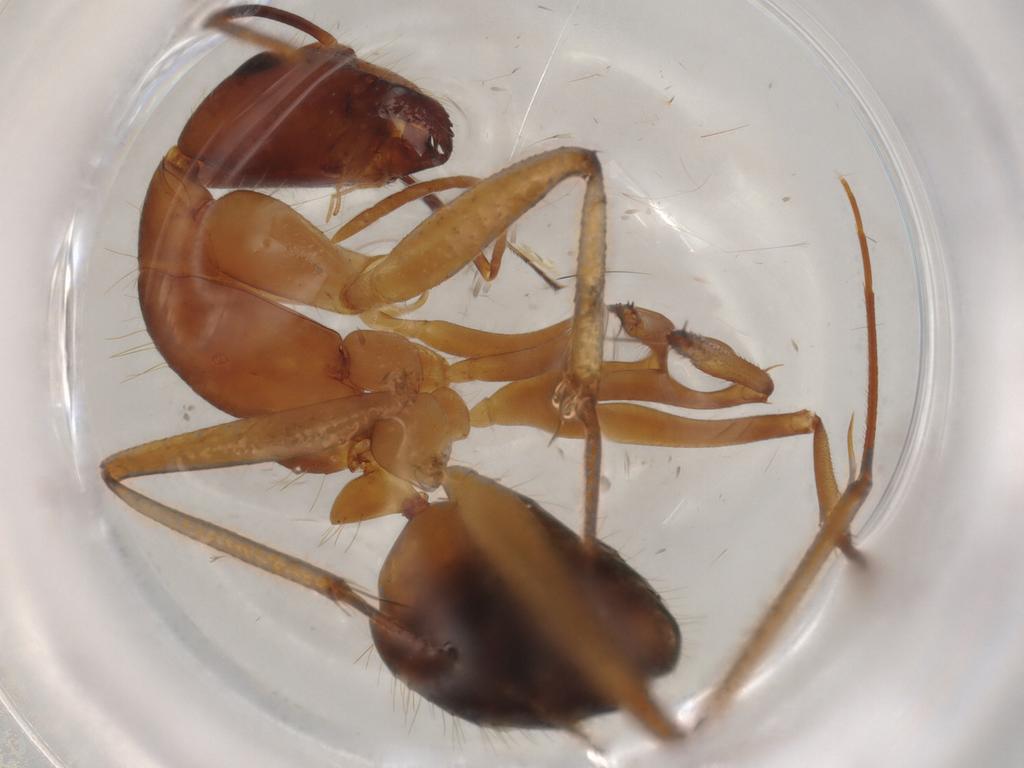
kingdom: Animalia
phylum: Arthropoda
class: Insecta
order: Hymenoptera
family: Formicidae
